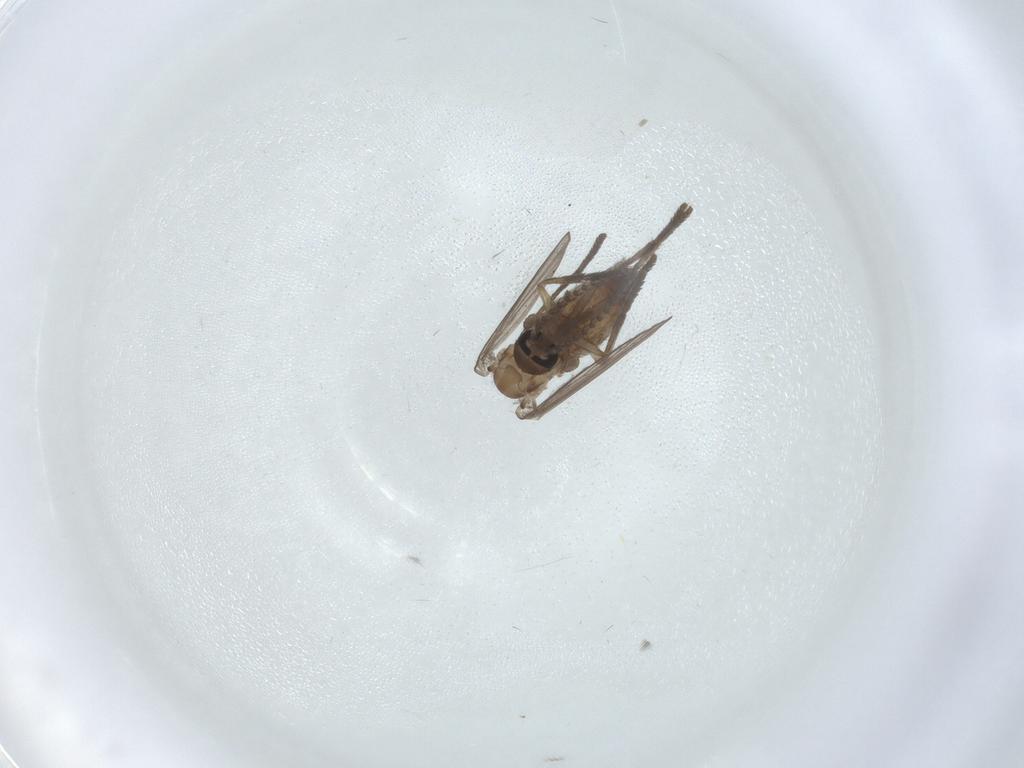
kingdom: Animalia
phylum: Arthropoda
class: Insecta
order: Diptera
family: Psychodidae
